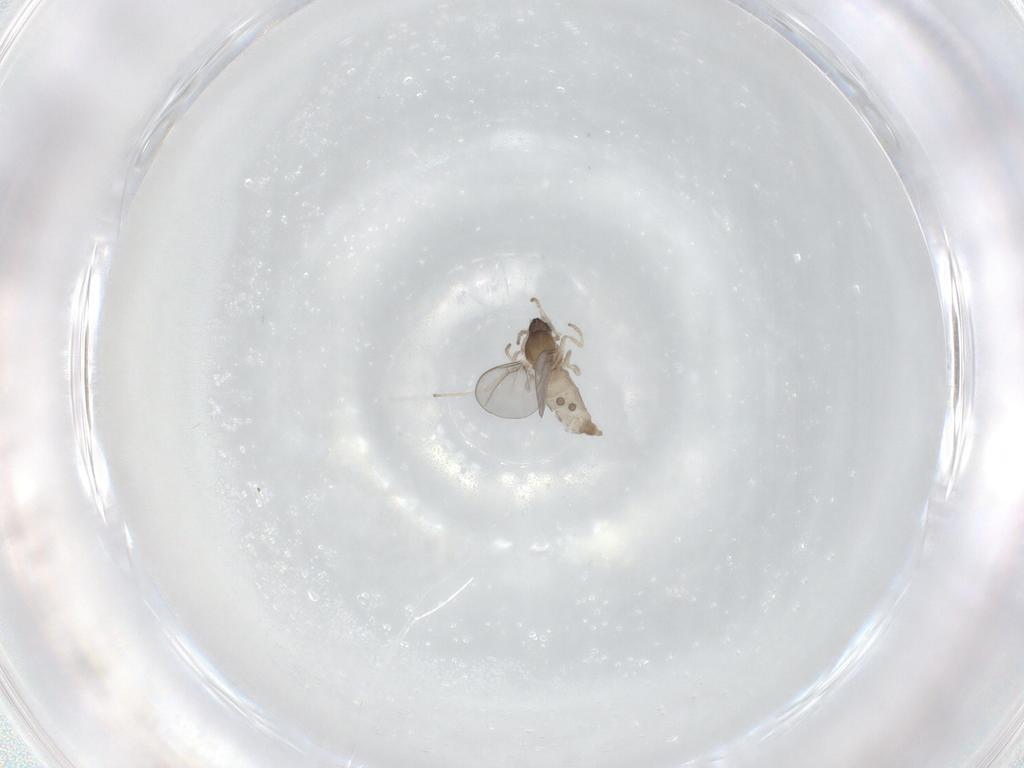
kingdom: Animalia
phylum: Arthropoda
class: Insecta
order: Diptera
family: Cecidomyiidae
